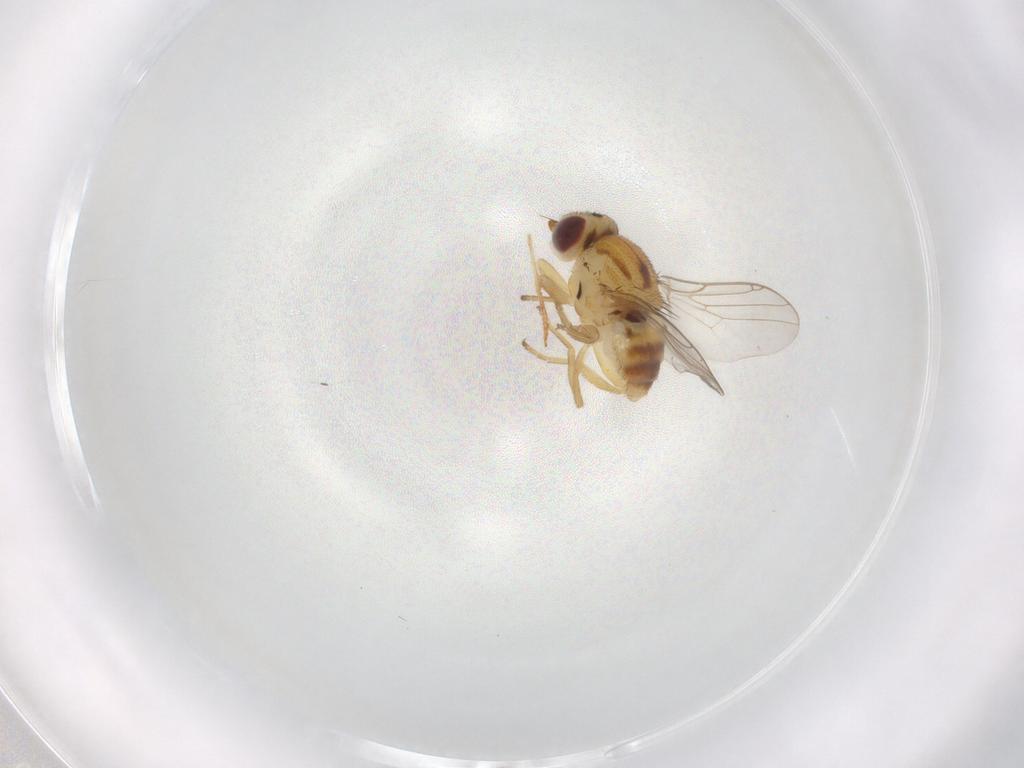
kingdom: Animalia
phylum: Arthropoda
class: Insecta
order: Diptera
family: Chloropidae
